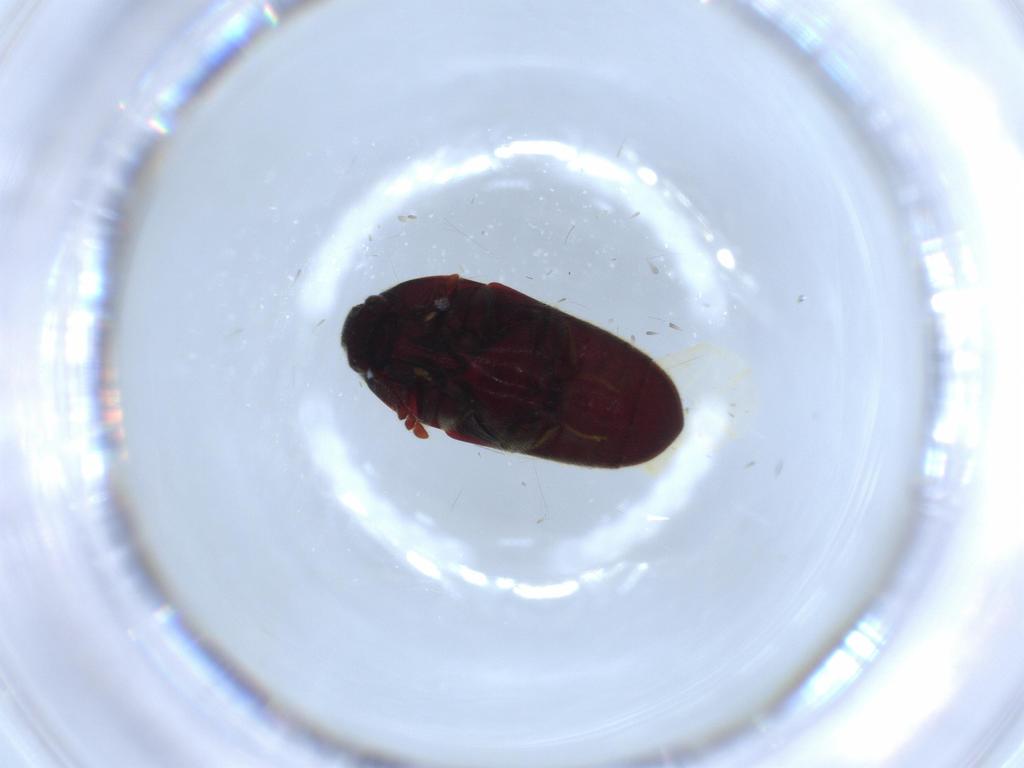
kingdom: Animalia
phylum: Arthropoda
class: Insecta
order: Coleoptera
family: Throscidae
